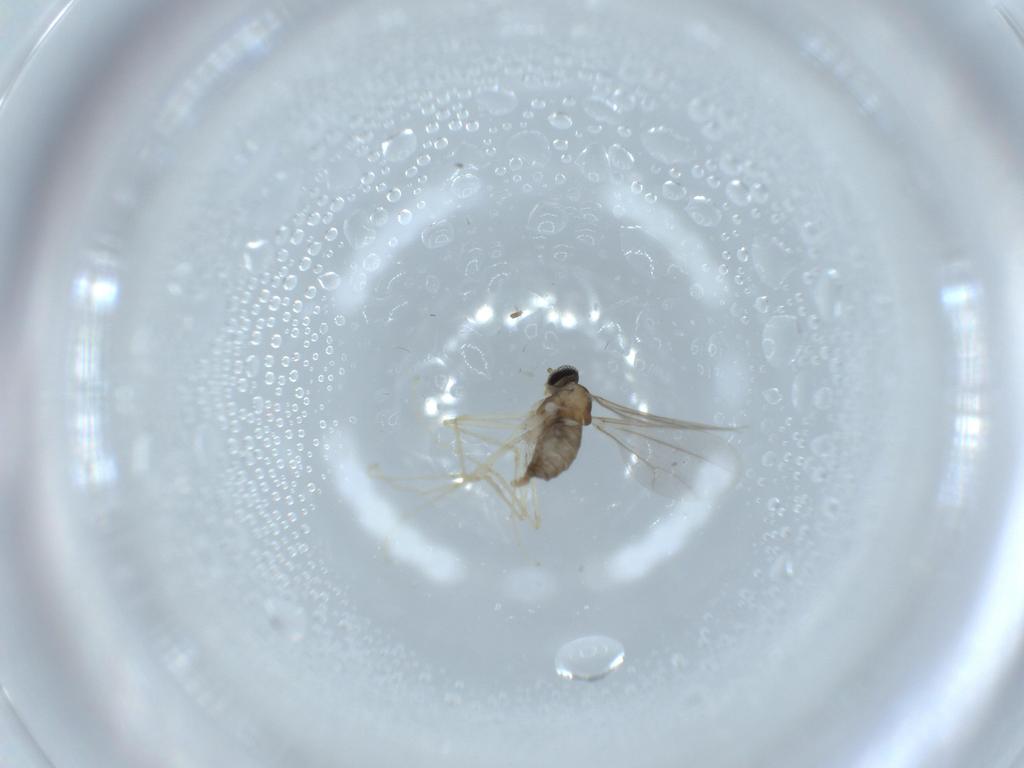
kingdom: Animalia
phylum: Arthropoda
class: Insecta
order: Diptera
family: Cecidomyiidae
